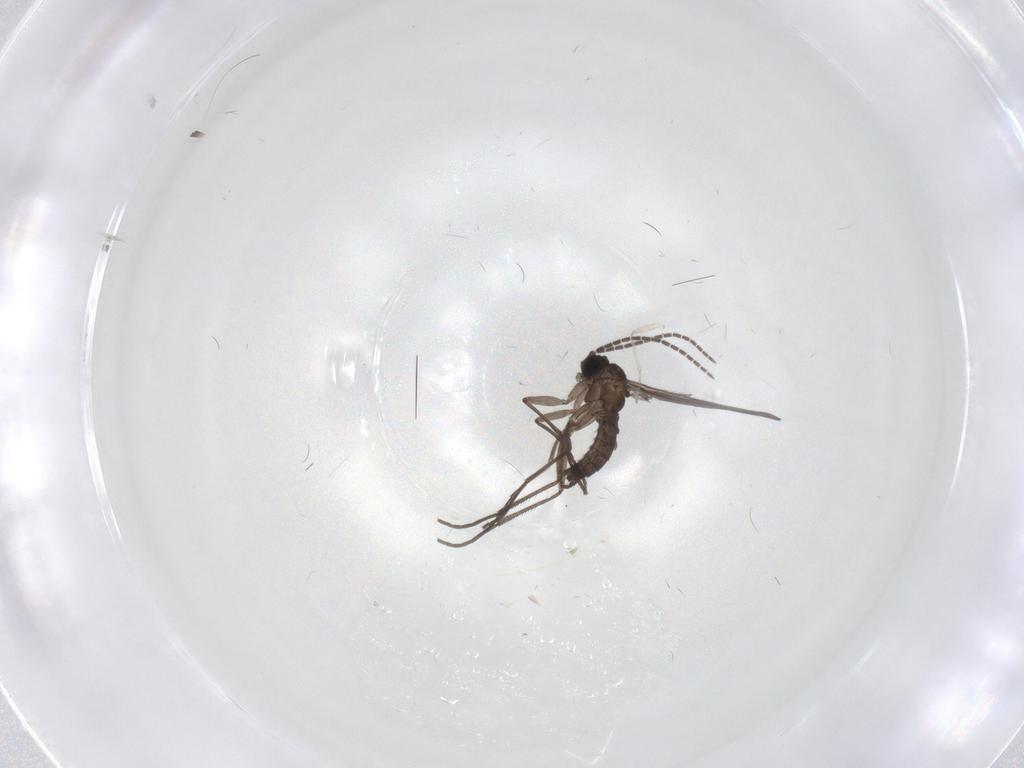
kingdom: Animalia
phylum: Arthropoda
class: Insecta
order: Diptera
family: Sciaridae
